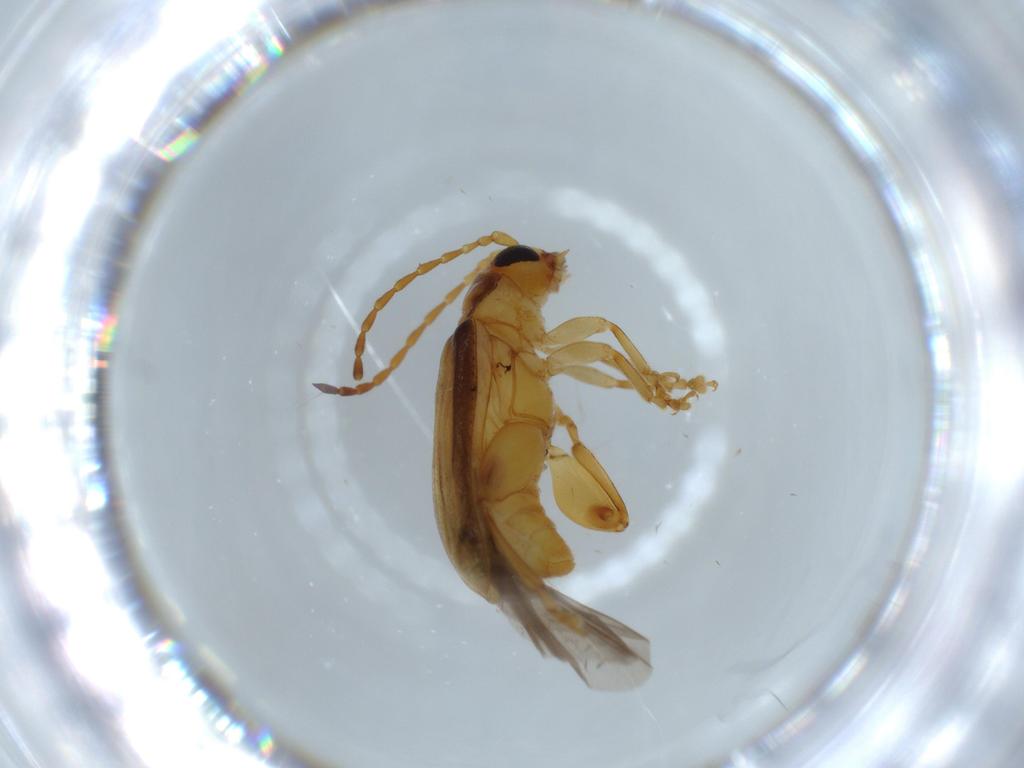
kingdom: Animalia
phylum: Arthropoda
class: Insecta
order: Coleoptera
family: Chrysomelidae
